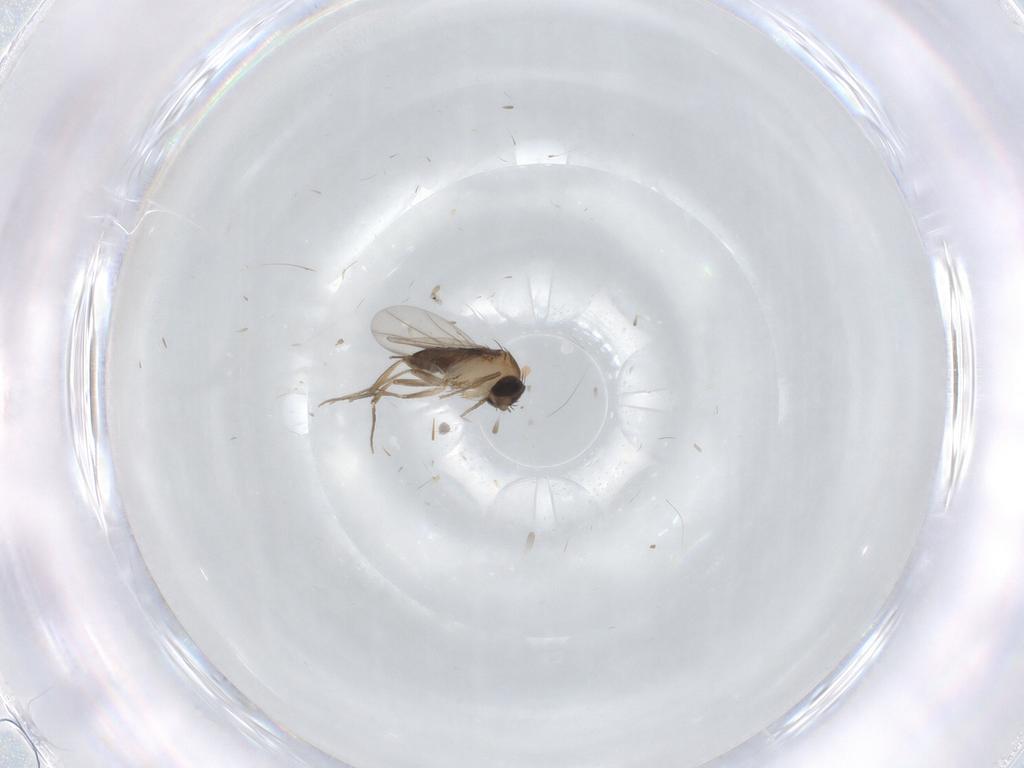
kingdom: Animalia
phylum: Arthropoda
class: Insecta
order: Diptera
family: Phoridae
